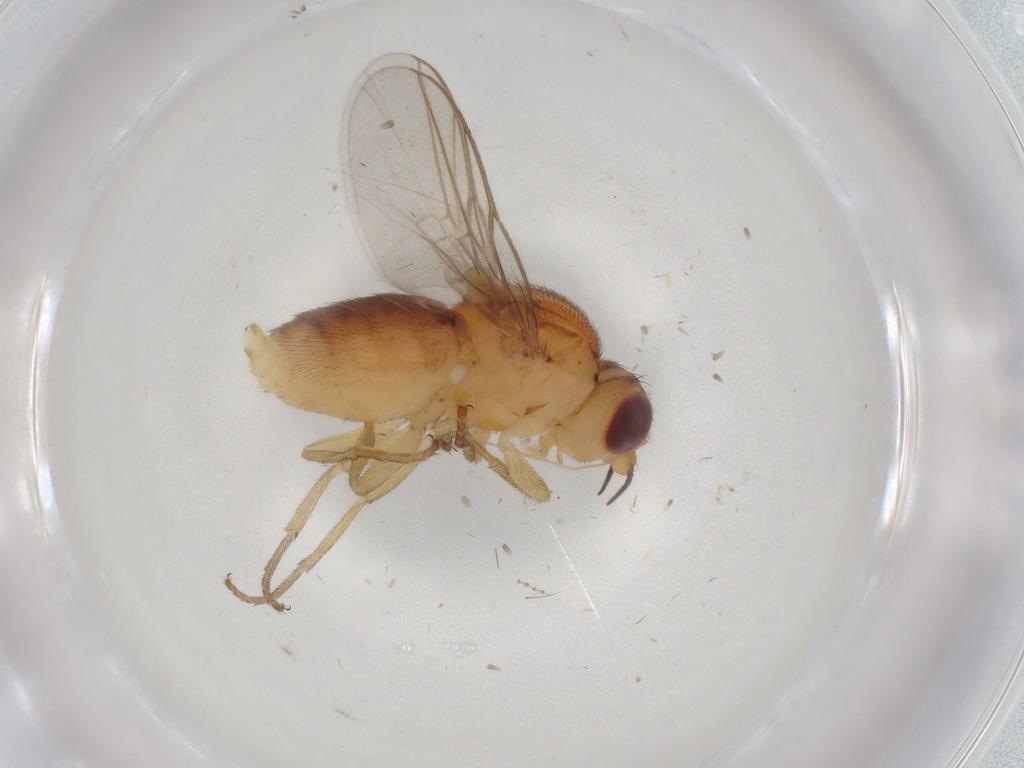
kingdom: Animalia
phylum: Arthropoda
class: Insecta
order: Diptera
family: Chloropidae
